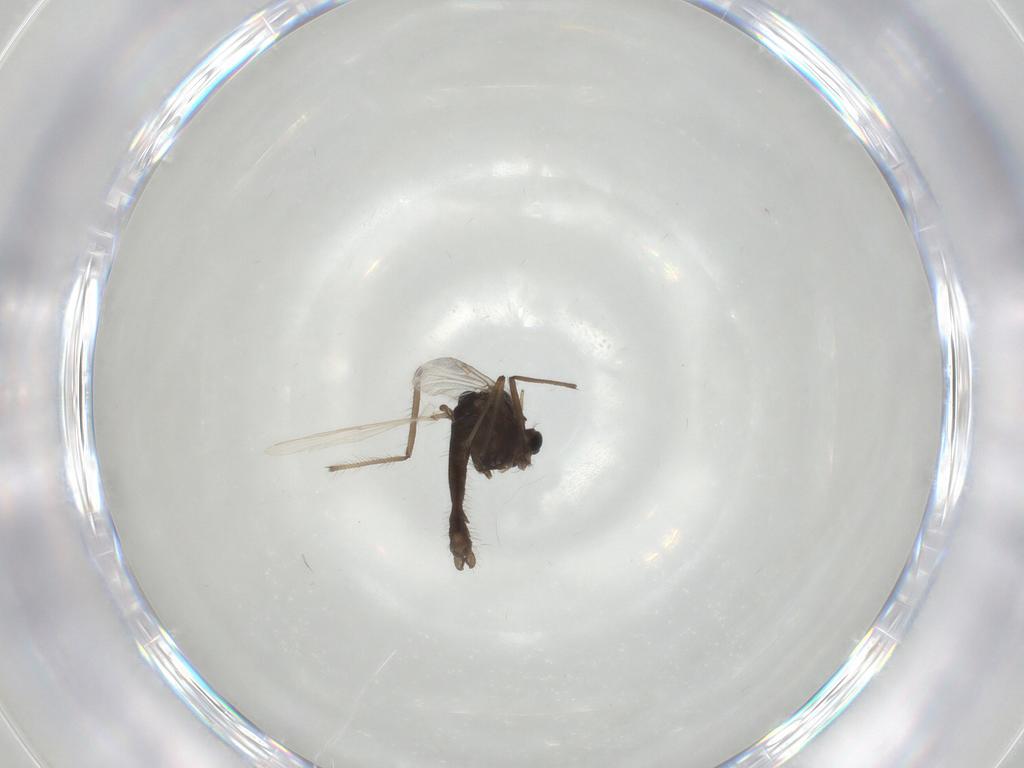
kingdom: Animalia
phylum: Arthropoda
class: Insecta
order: Diptera
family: Chironomidae
